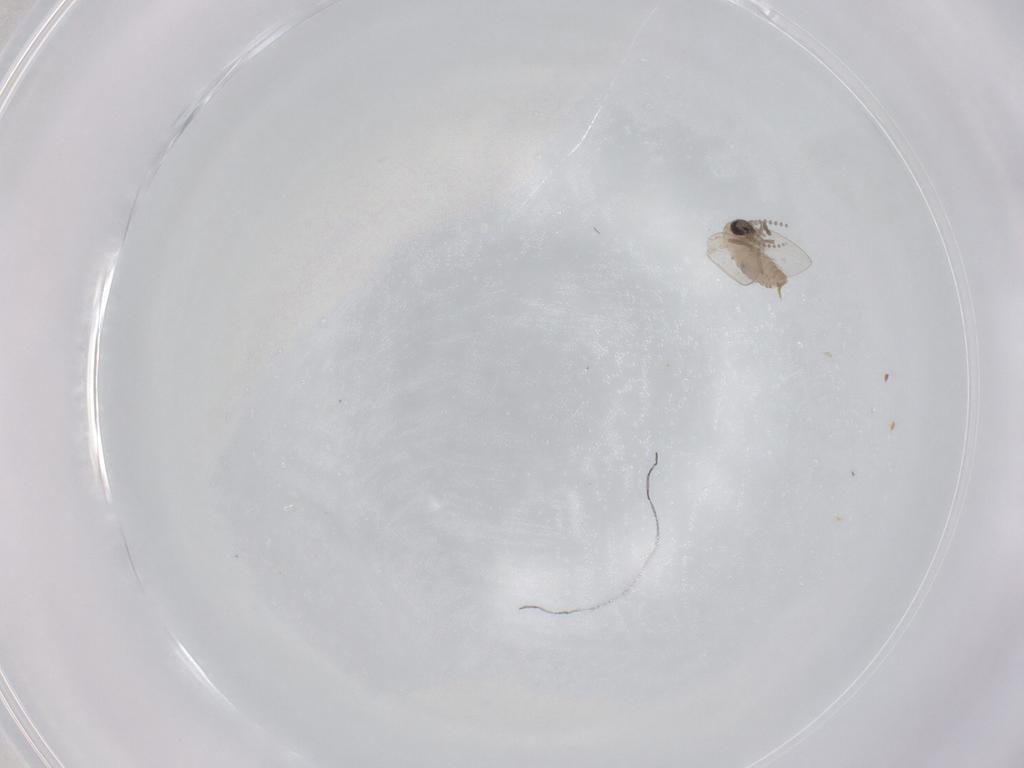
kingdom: Animalia
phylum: Arthropoda
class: Insecta
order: Diptera
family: Psychodidae
